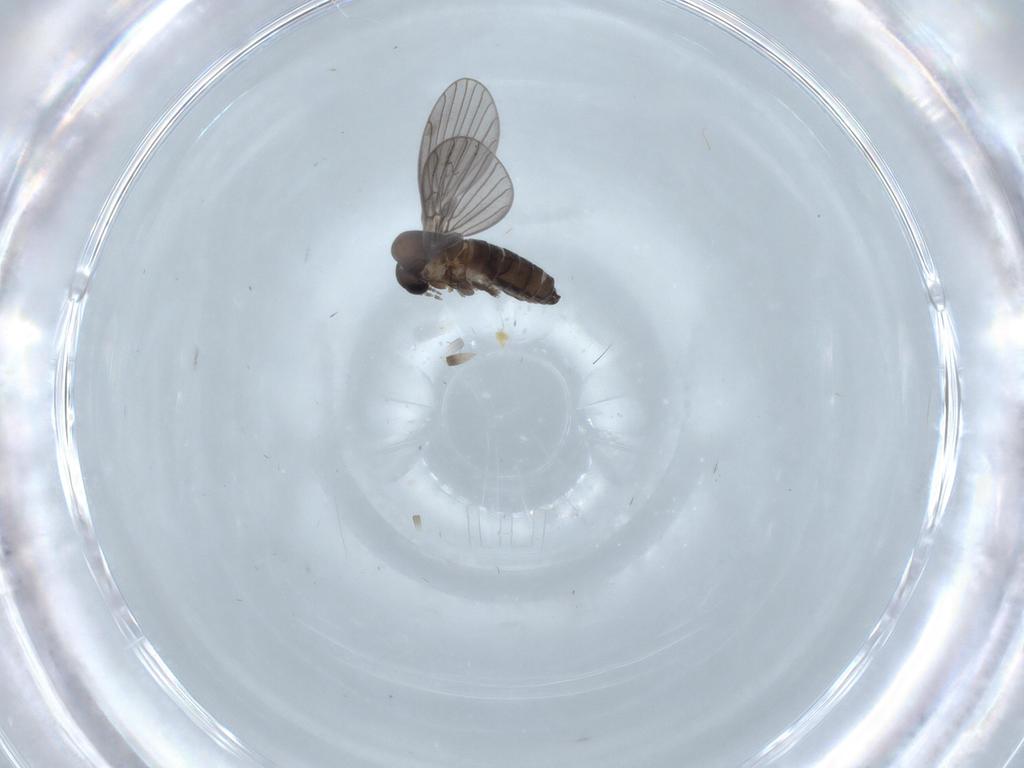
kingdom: Animalia
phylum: Arthropoda
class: Insecta
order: Diptera
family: Psychodidae
